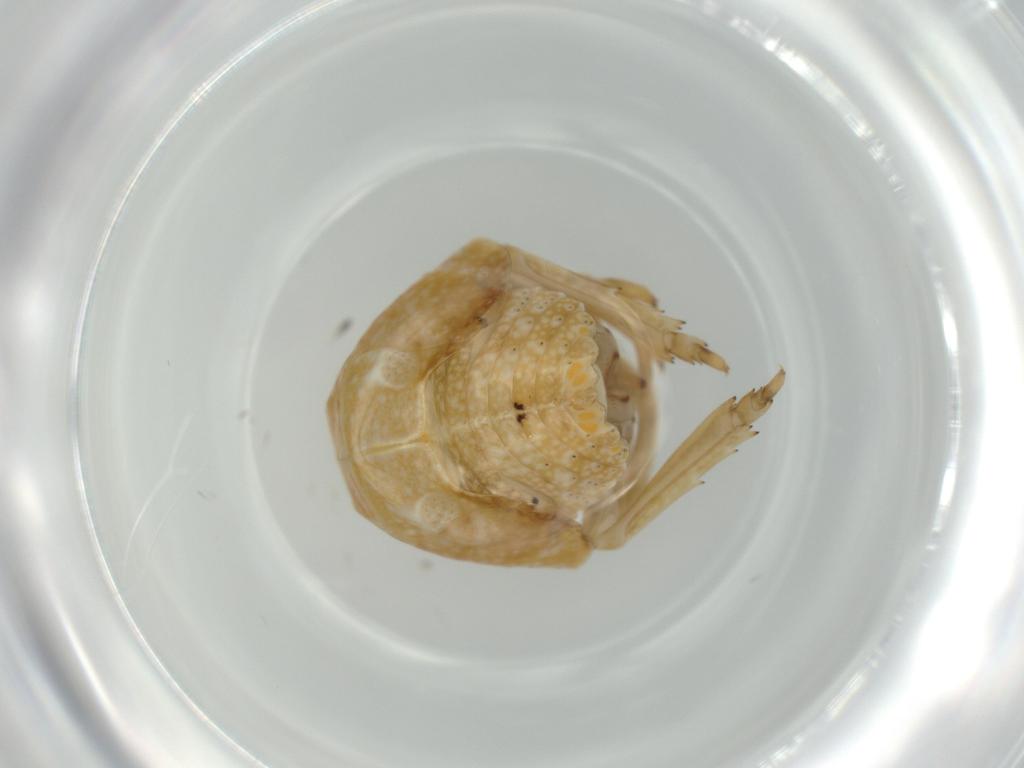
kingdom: Animalia
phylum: Arthropoda
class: Insecta
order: Hemiptera
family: Acanaloniidae
